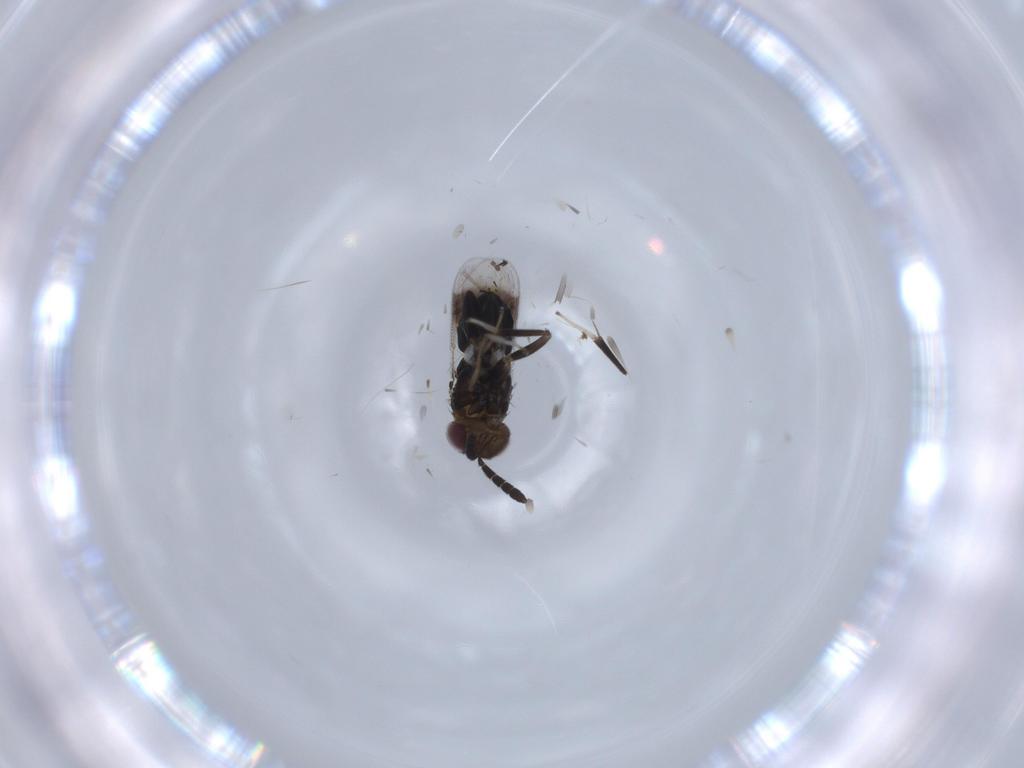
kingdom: Animalia
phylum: Arthropoda
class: Insecta
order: Hymenoptera
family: Aphelinidae
